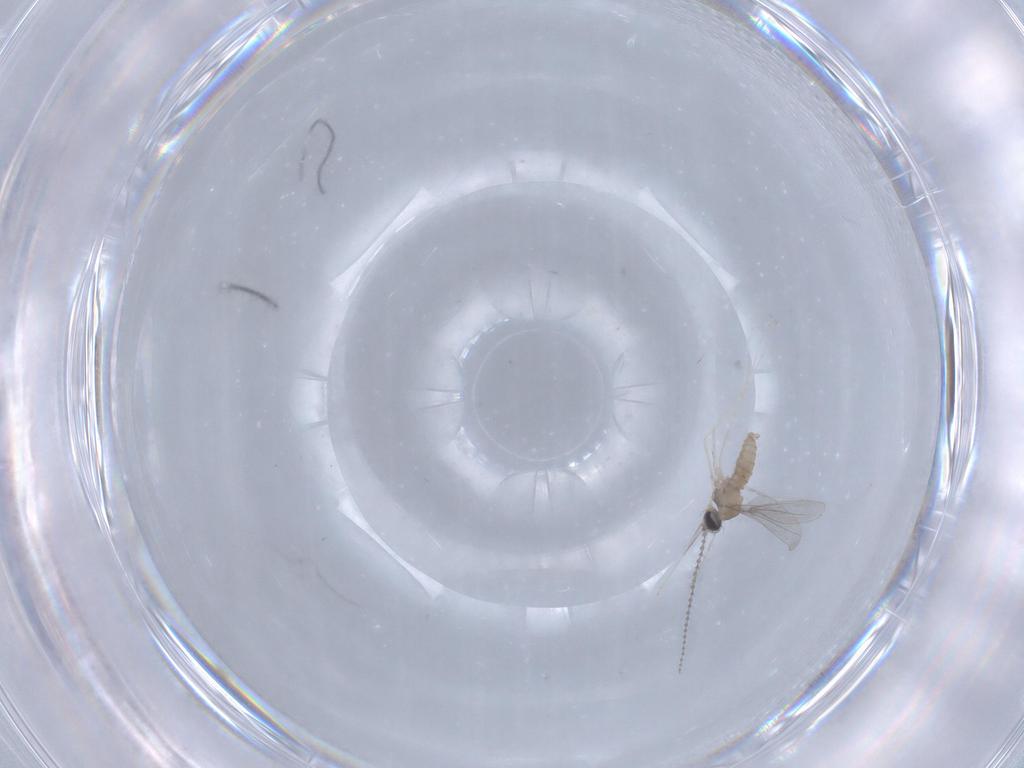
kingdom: Animalia
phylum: Arthropoda
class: Insecta
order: Diptera
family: Cecidomyiidae
